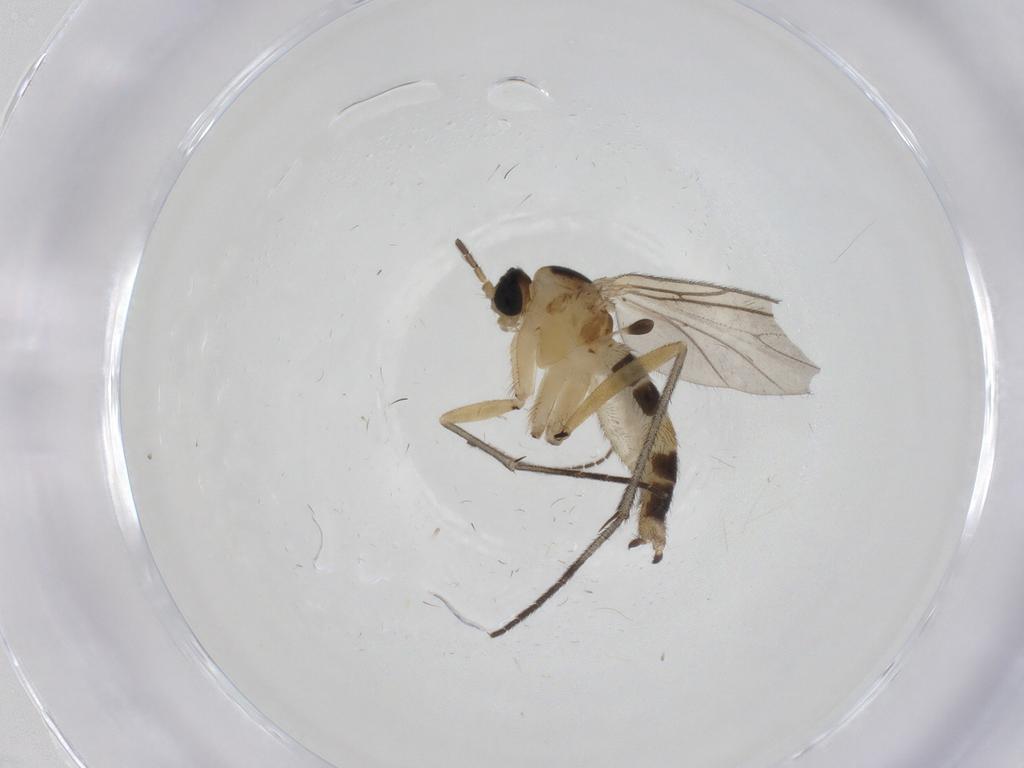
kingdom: Animalia
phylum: Arthropoda
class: Insecta
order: Diptera
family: Sciaridae
